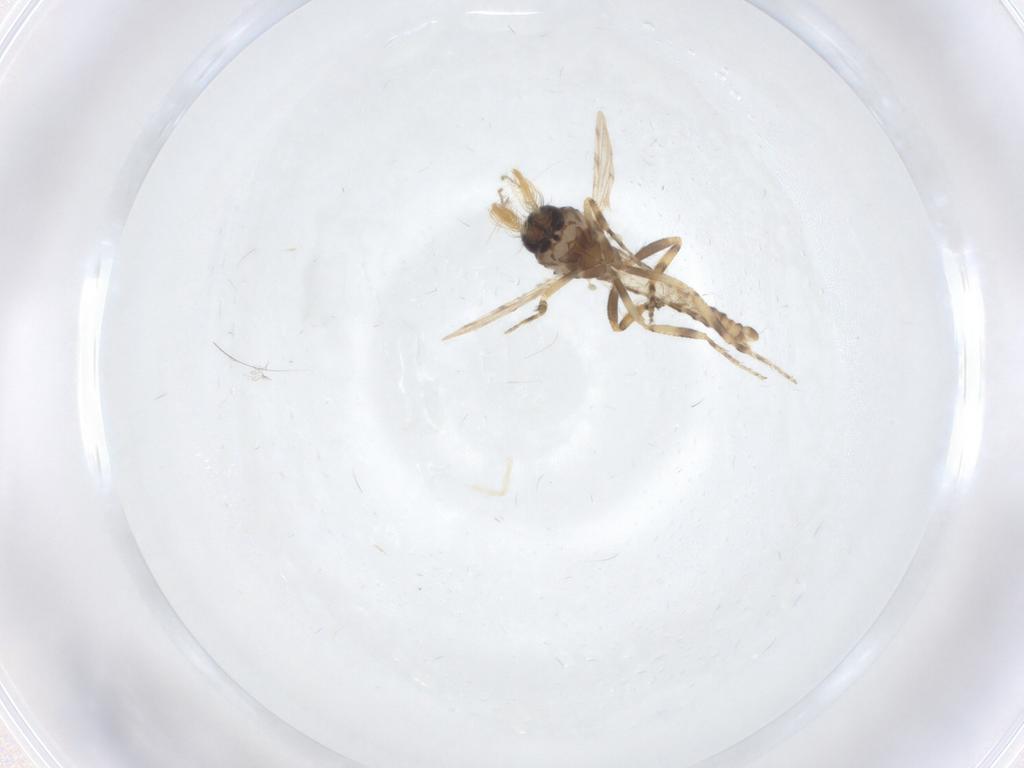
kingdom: Animalia
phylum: Arthropoda
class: Insecta
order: Diptera
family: Ceratopogonidae
